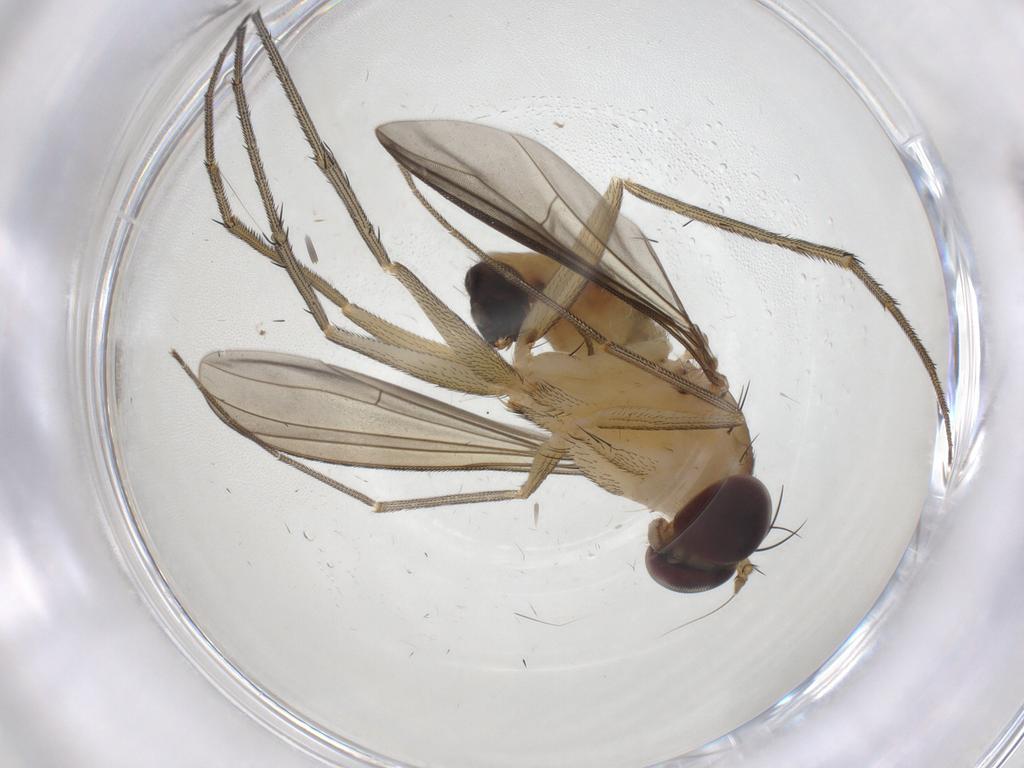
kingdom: Animalia
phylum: Arthropoda
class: Insecta
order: Diptera
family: Dolichopodidae
